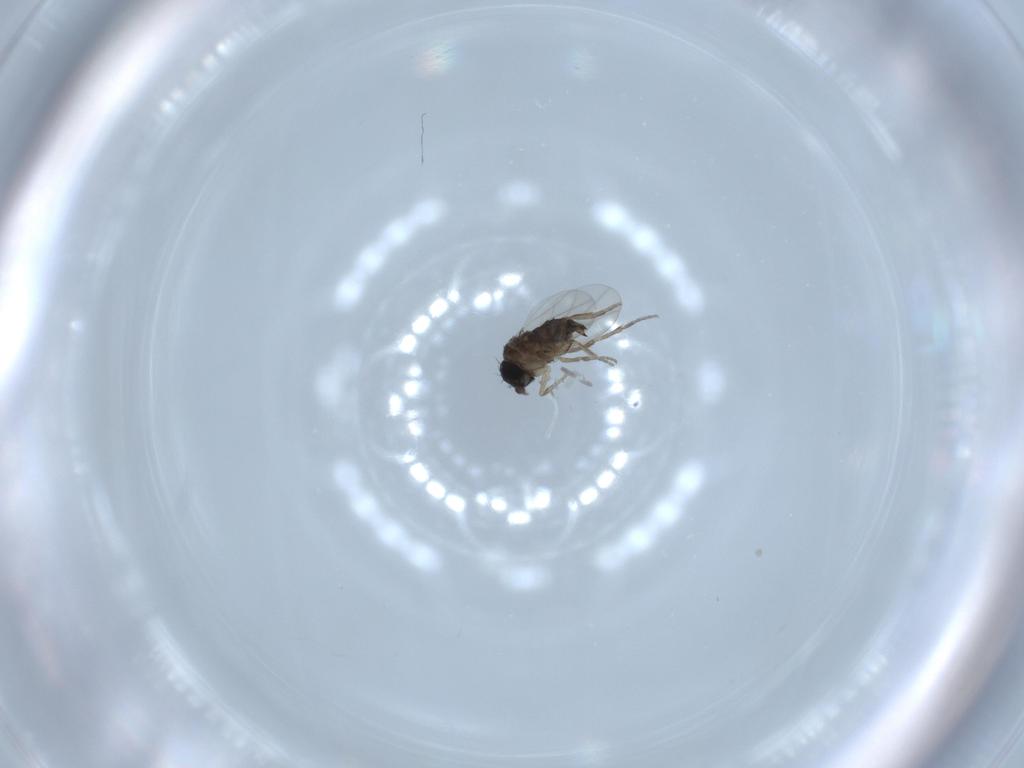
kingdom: Animalia
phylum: Arthropoda
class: Insecta
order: Diptera
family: Phoridae
